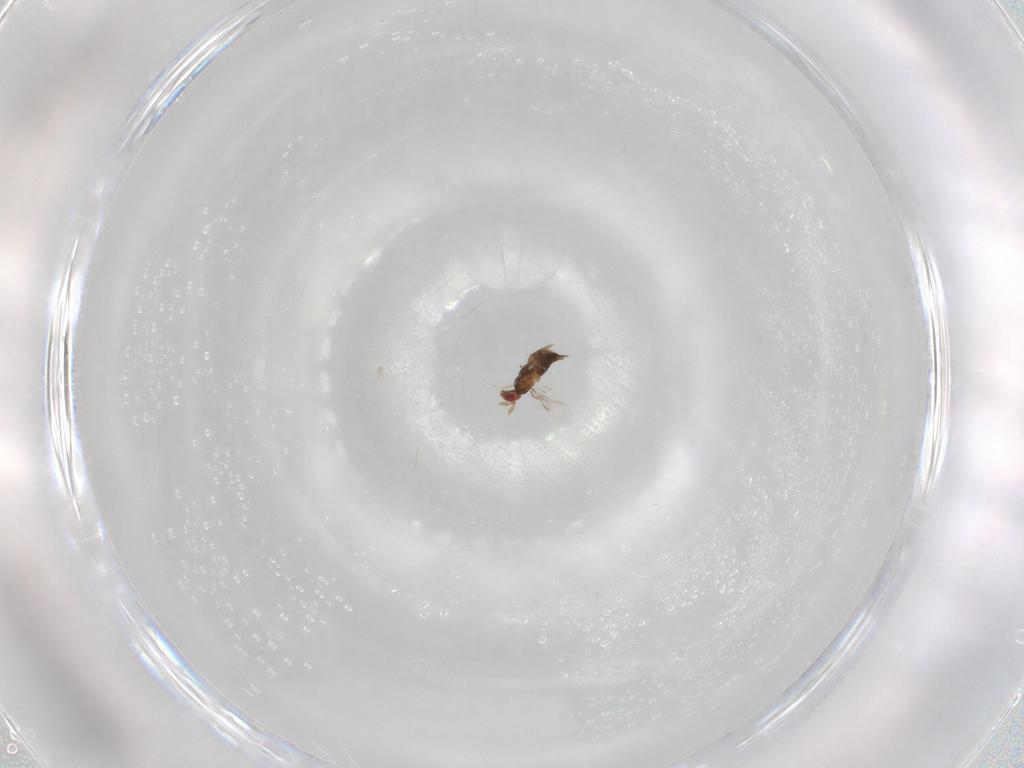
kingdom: Animalia
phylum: Arthropoda
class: Insecta
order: Hymenoptera
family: Trichogrammatidae
